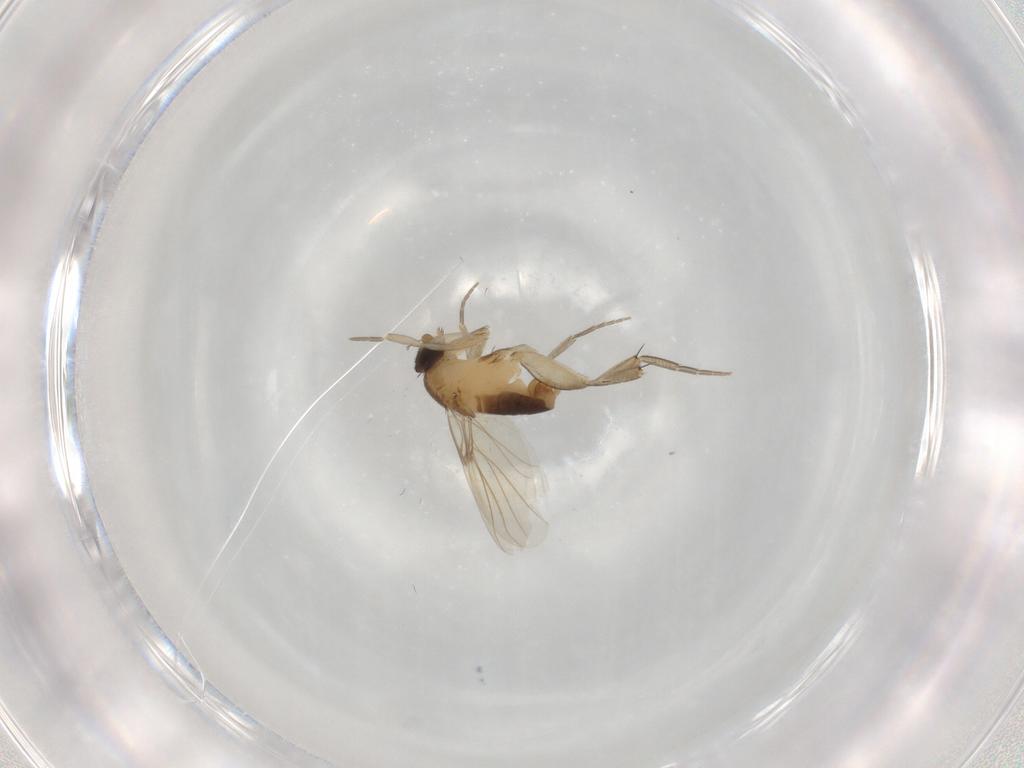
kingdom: Animalia
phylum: Arthropoda
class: Insecta
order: Diptera
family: Phoridae
